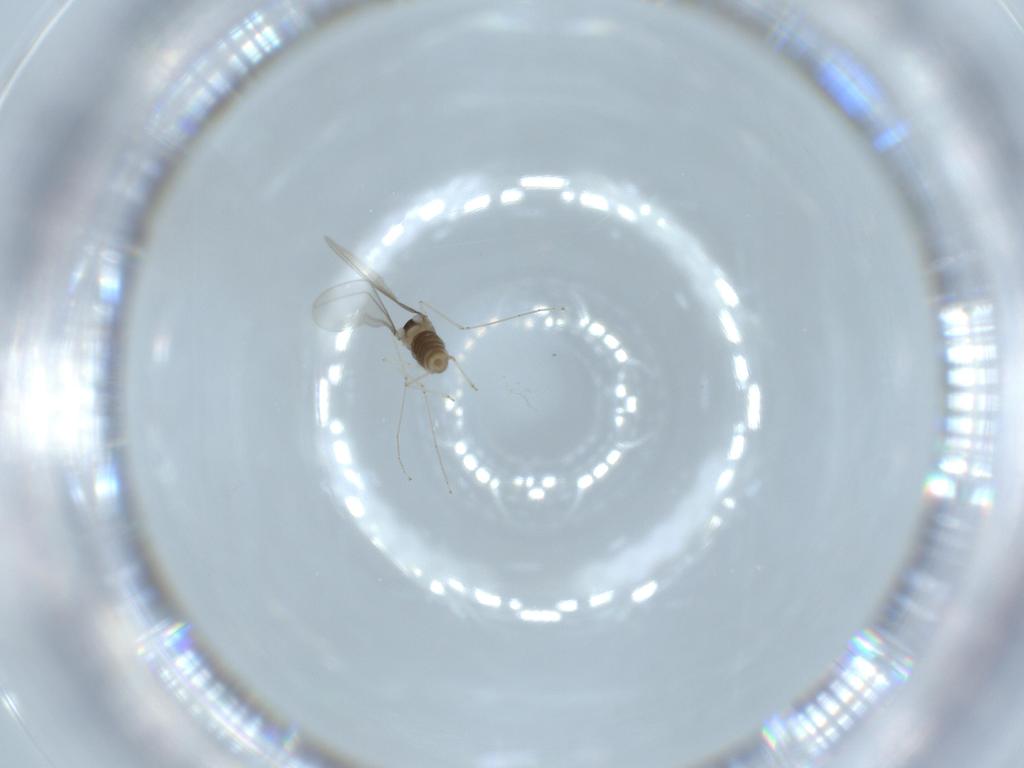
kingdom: Animalia
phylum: Arthropoda
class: Insecta
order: Diptera
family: Cecidomyiidae
